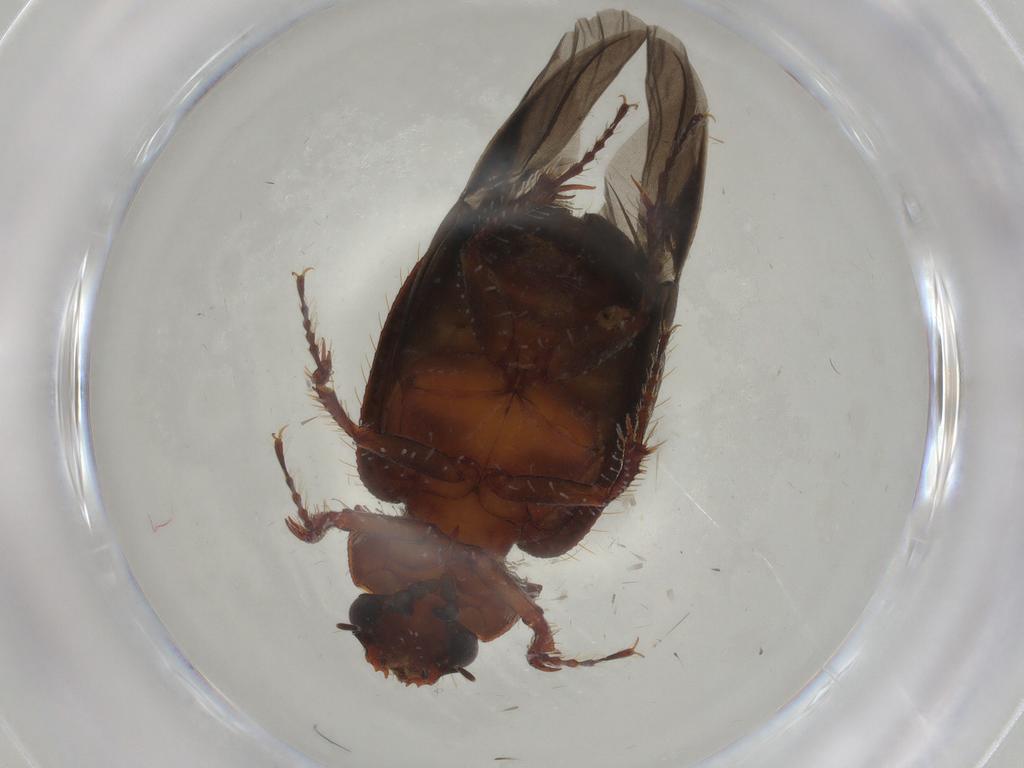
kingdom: Animalia
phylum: Arthropoda
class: Insecta
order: Coleoptera
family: Hybosoridae
